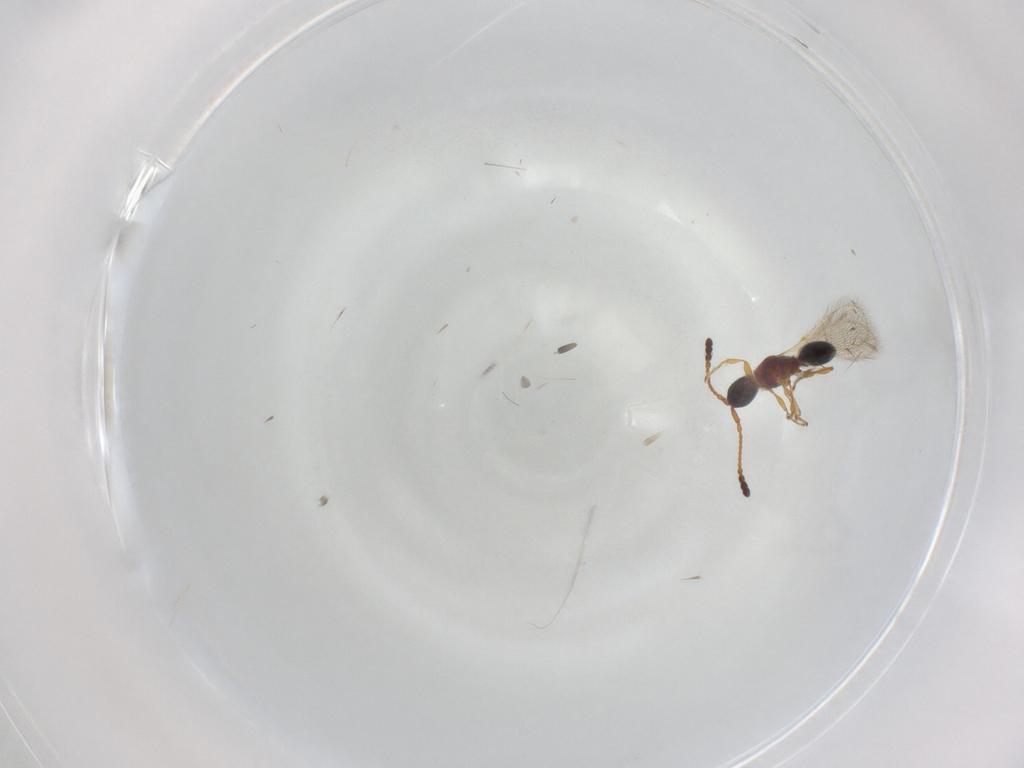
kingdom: Animalia
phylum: Arthropoda
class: Insecta
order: Hymenoptera
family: Diapriidae
